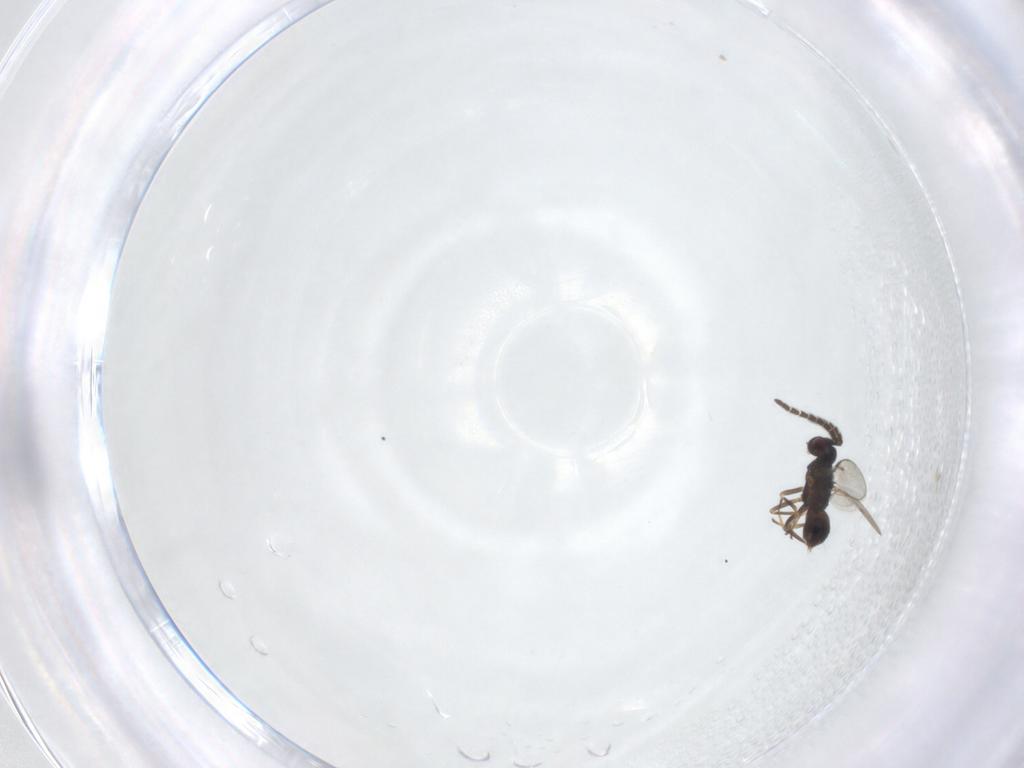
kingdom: Animalia
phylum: Arthropoda
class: Insecta
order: Hymenoptera
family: Encyrtidae
